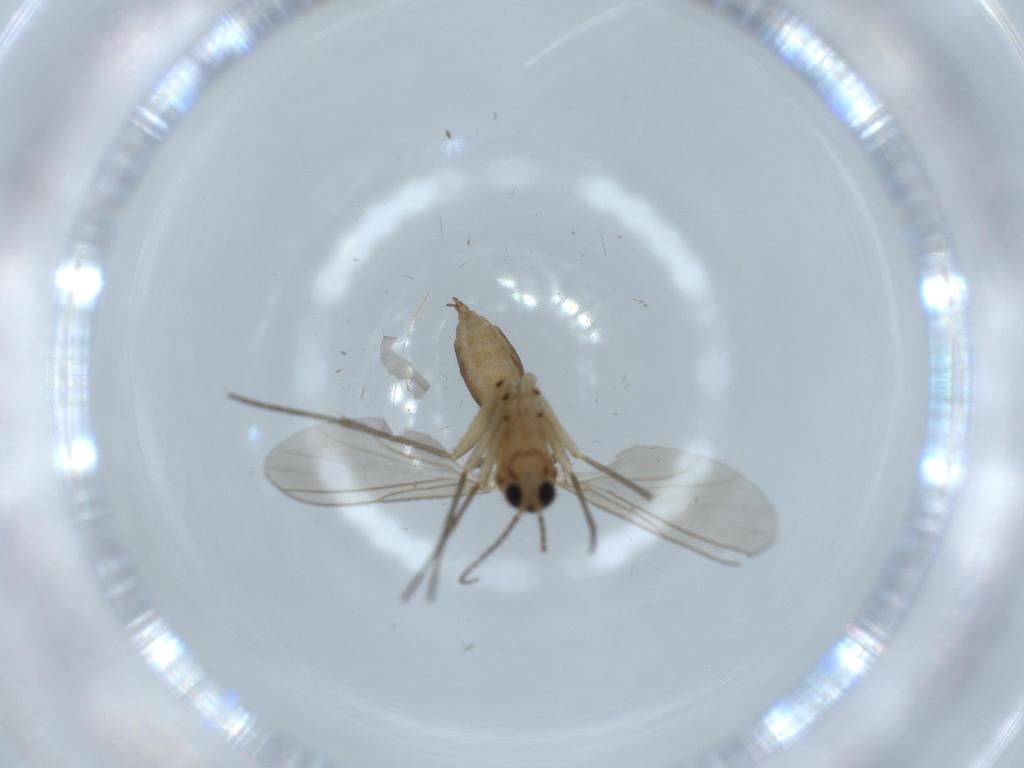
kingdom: Animalia
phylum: Arthropoda
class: Insecta
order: Diptera
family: Sciaridae
